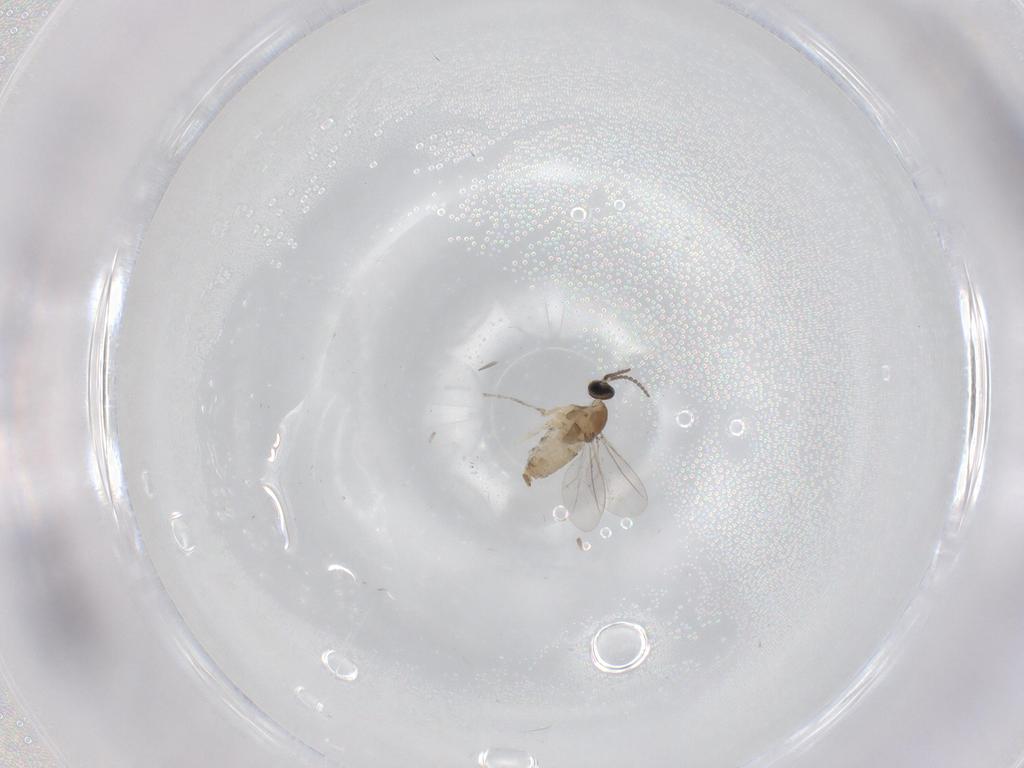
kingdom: Animalia
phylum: Arthropoda
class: Insecta
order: Diptera
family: Cecidomyiidae
